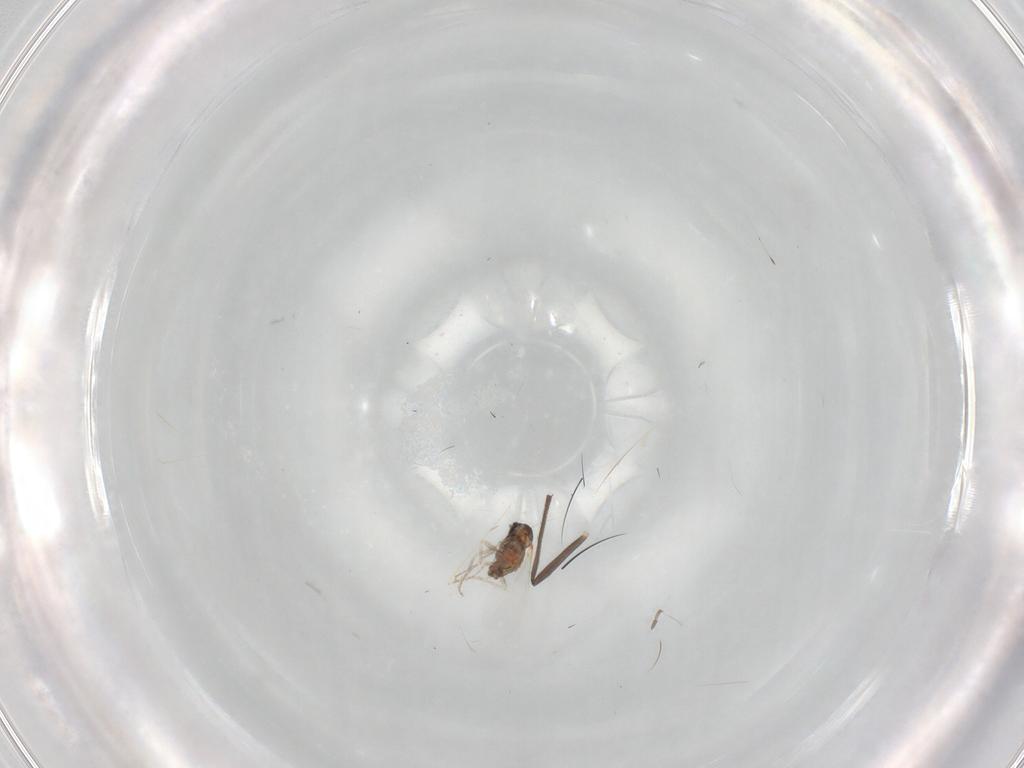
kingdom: Animalia
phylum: Arthropoda
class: Insecta
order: Diptera
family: Cecidomyiidae
